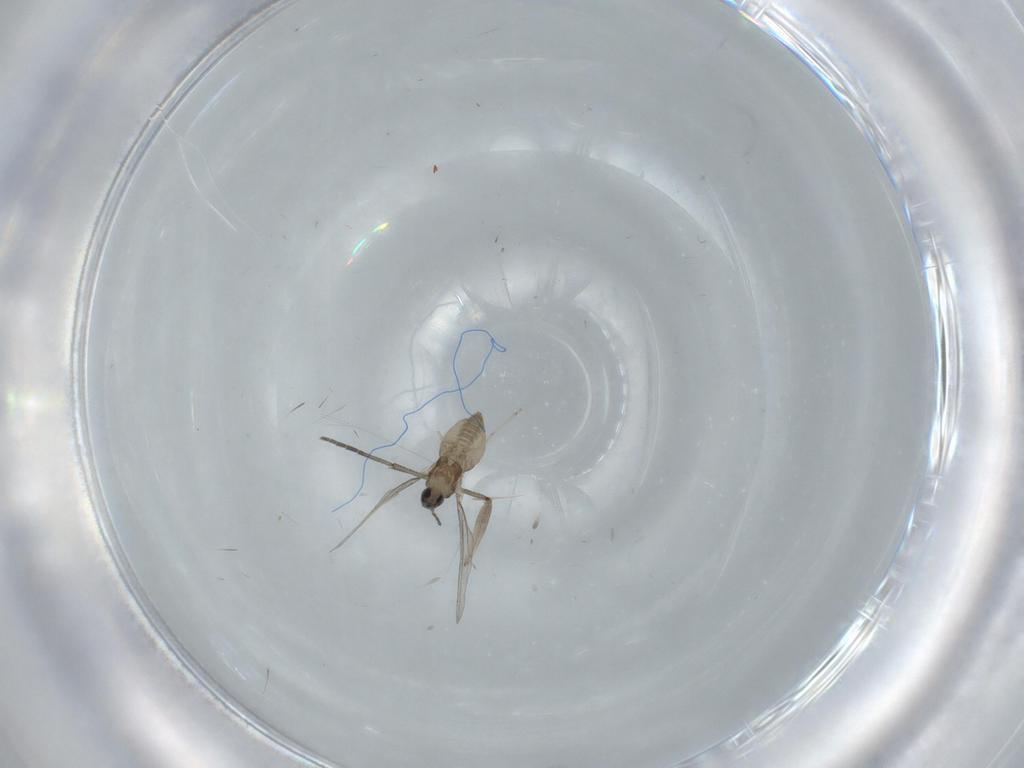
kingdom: Animalia
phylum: Arthropoda
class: Insecta
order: Diptera
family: Cecidomyiidae
